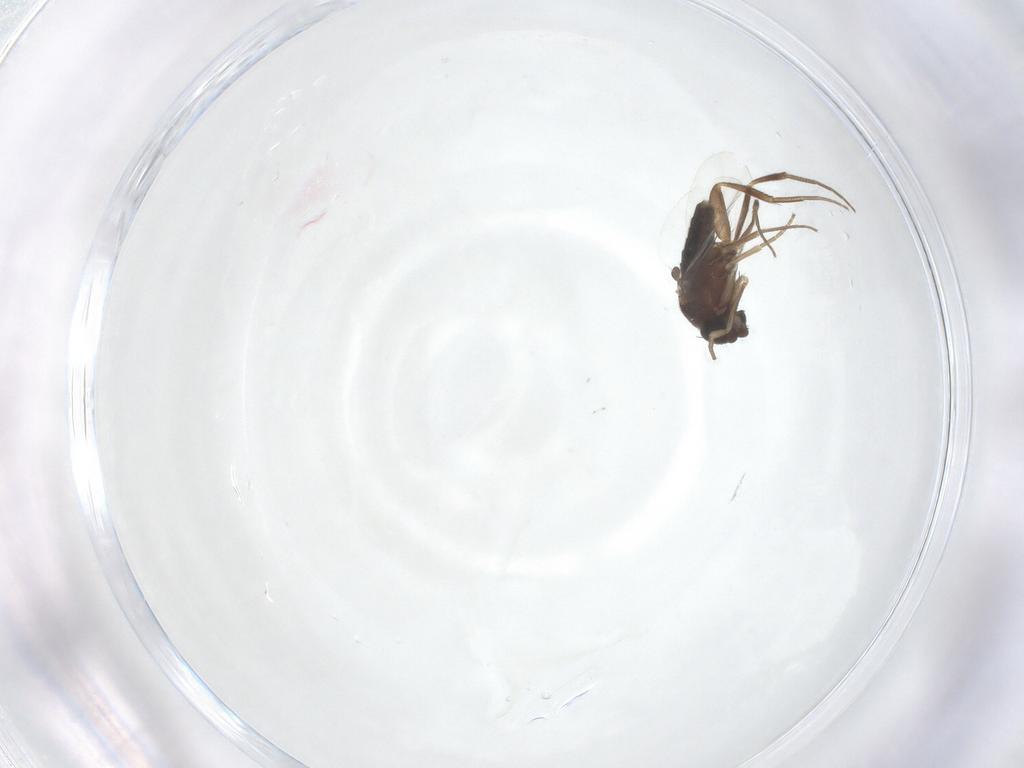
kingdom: Animalia
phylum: Arthropoda
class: Insecta
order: Diptera
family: Phoridae
